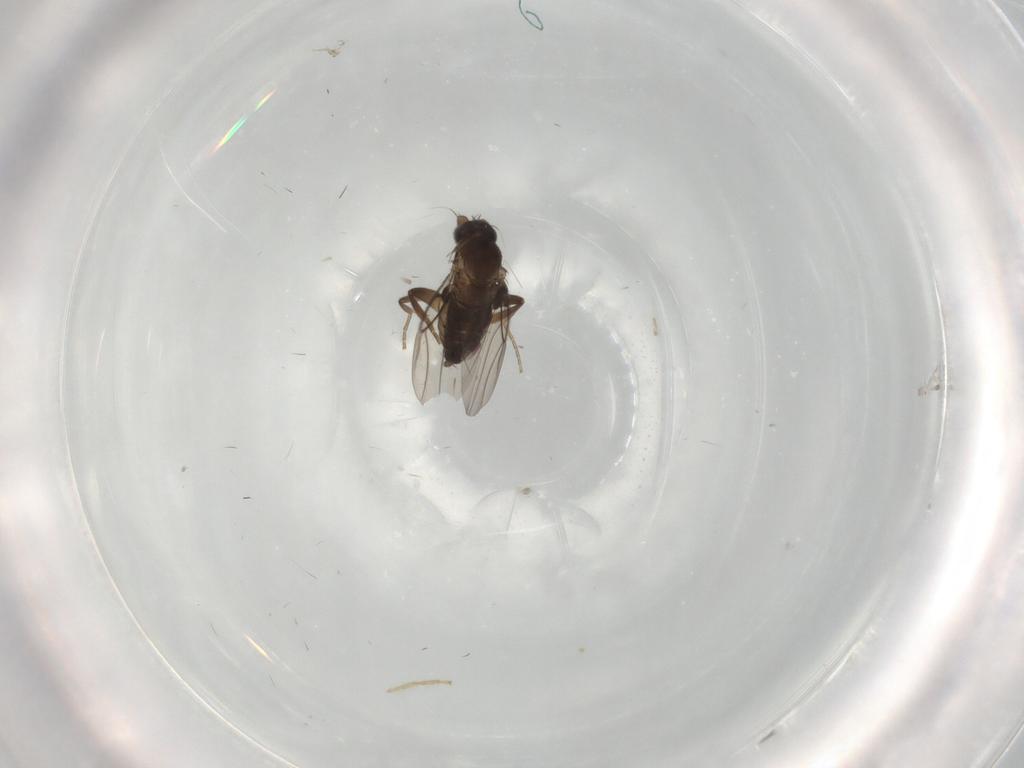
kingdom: Animalia
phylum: Arthropoda
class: Insecta
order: Diptera
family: Phoridae
